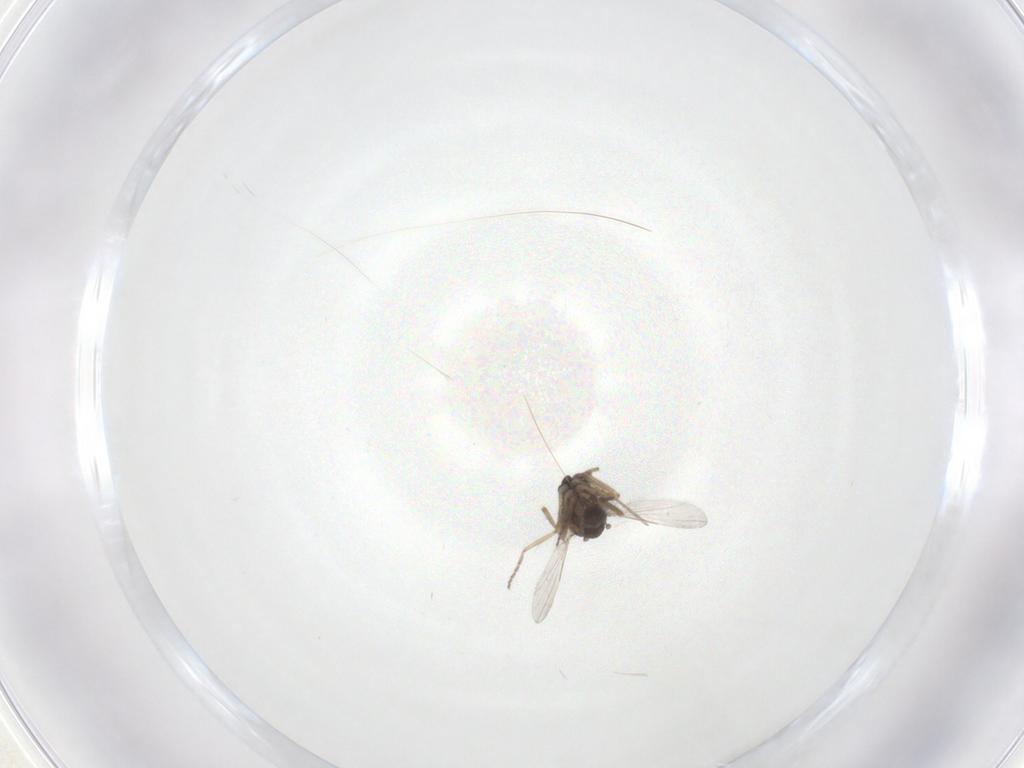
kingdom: Animalia
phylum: Arthropoda
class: Insecta
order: Diptera
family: Ceratopogonidae
